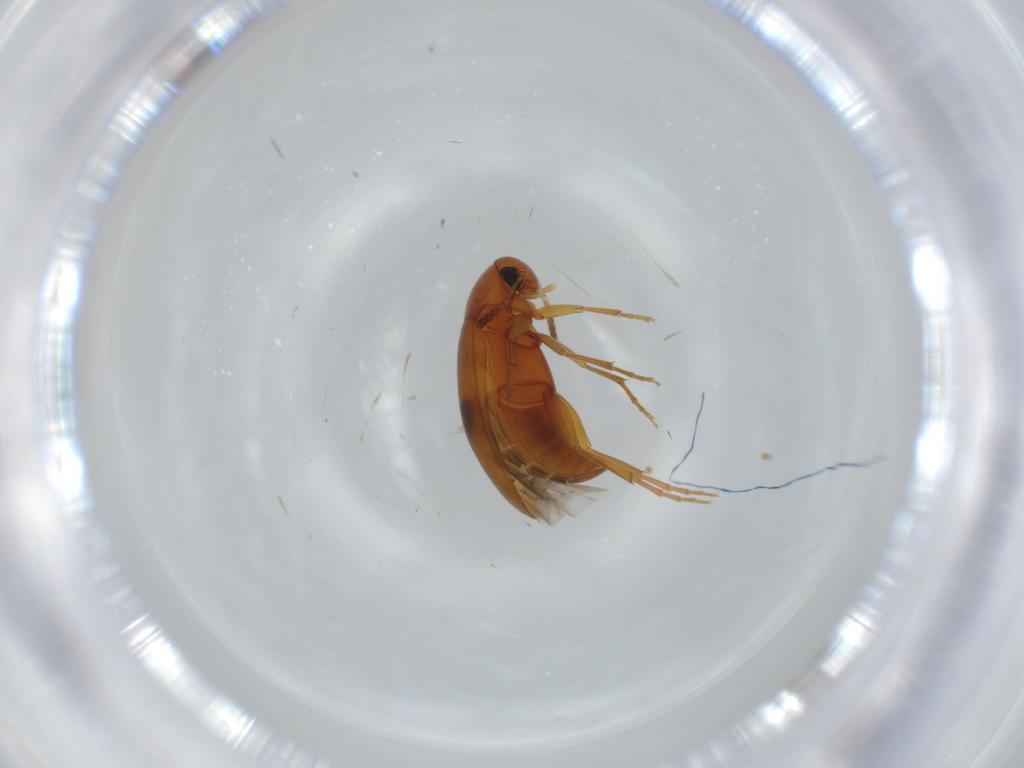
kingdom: Animalia
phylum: Arthropoda
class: Insecta
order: Coleoptera
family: Scraptiidae
